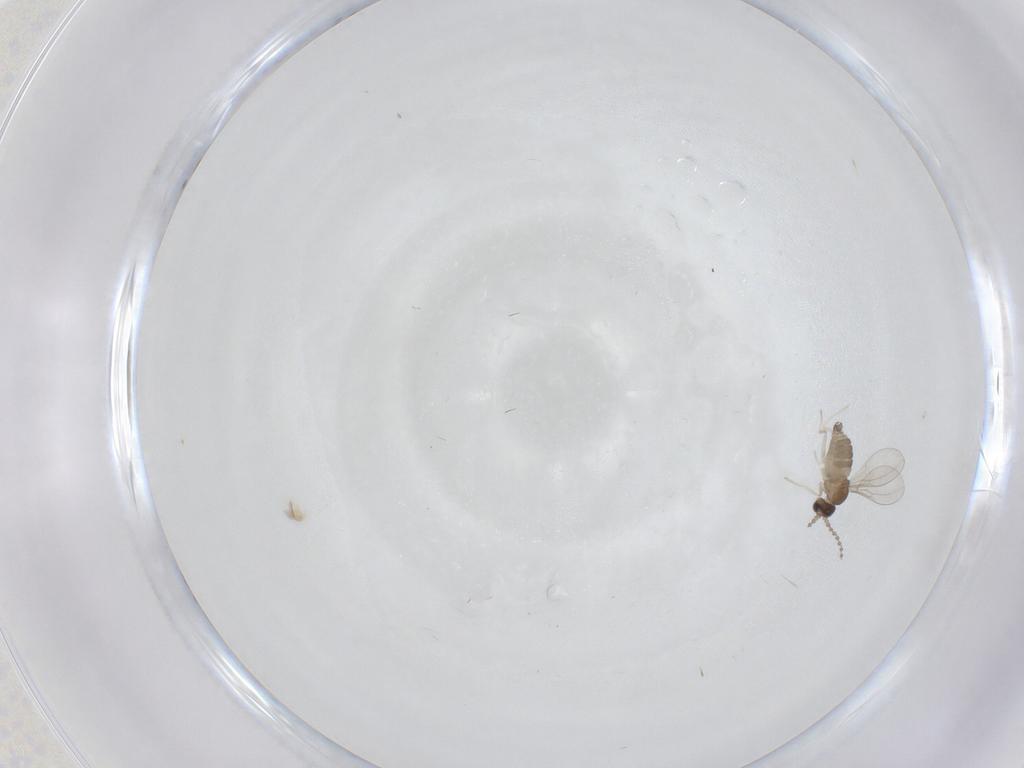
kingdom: Animalia
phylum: Arthropoda
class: Insecta
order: Diptera
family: Cecidomyiidae
